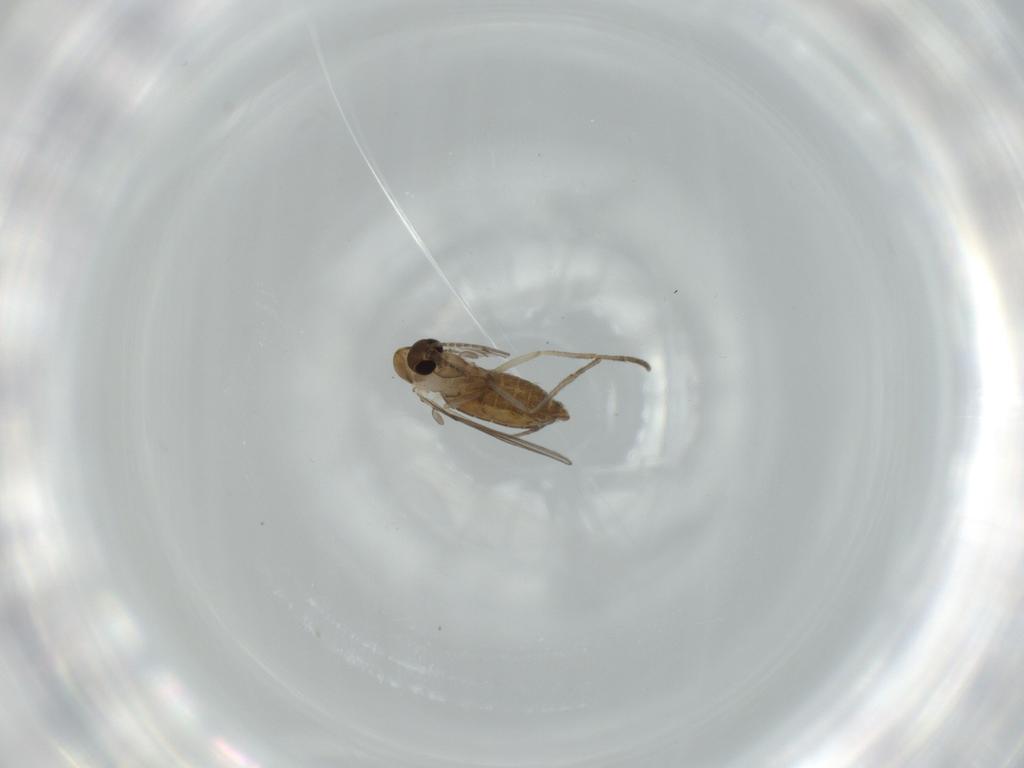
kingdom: Animalia
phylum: Arthropoda
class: Insecta
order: Diptera
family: Psychodidae
